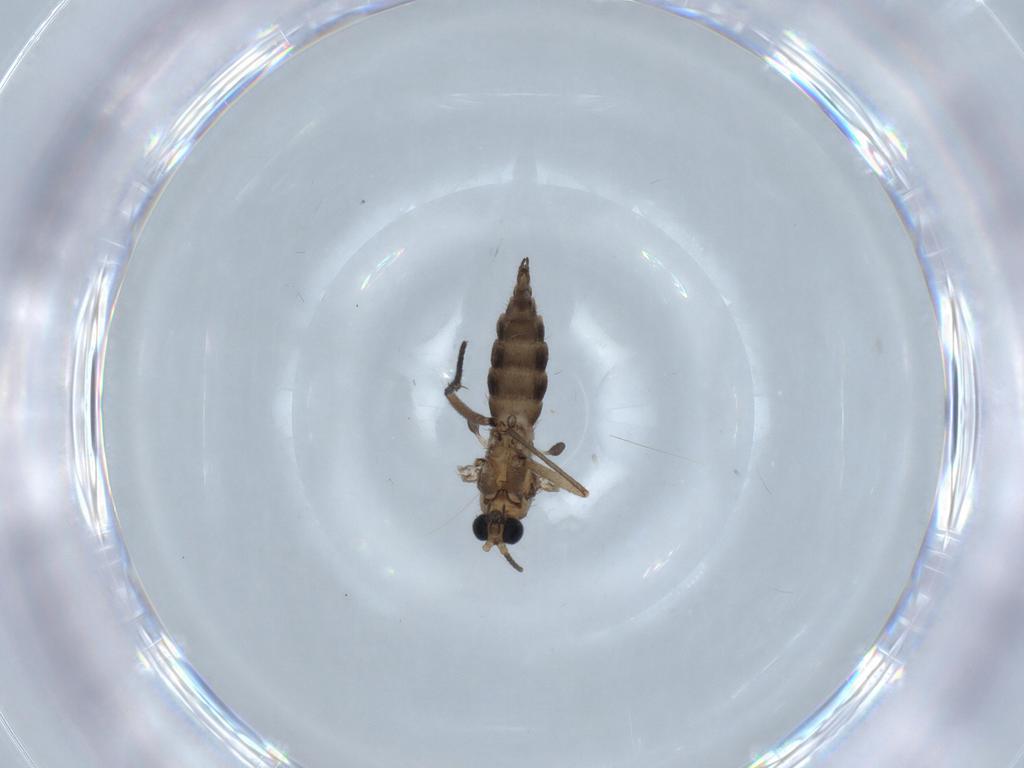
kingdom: Animalia
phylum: Arthropoda
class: Insecta
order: Diptera
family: Sciaridae
